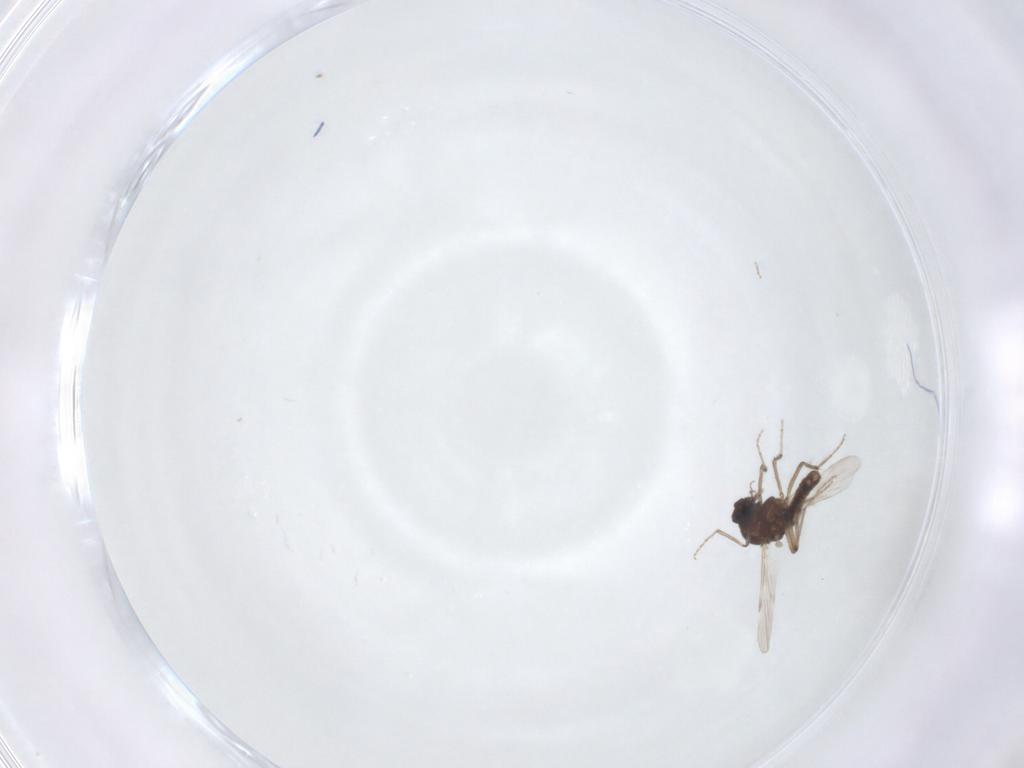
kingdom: Animalia
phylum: Arthropoda
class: Insecta
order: Diptera
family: Ceratopogonidae
